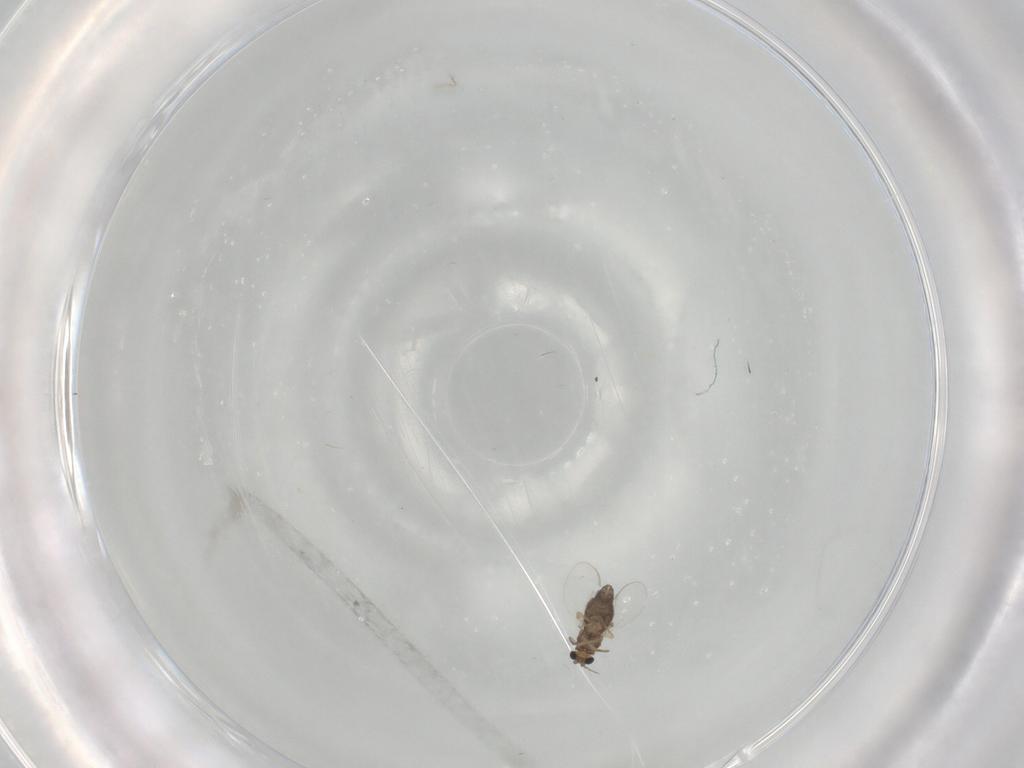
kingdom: Animalia
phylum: Arthropoda
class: Insecta
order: Diptera
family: Chironomidae
